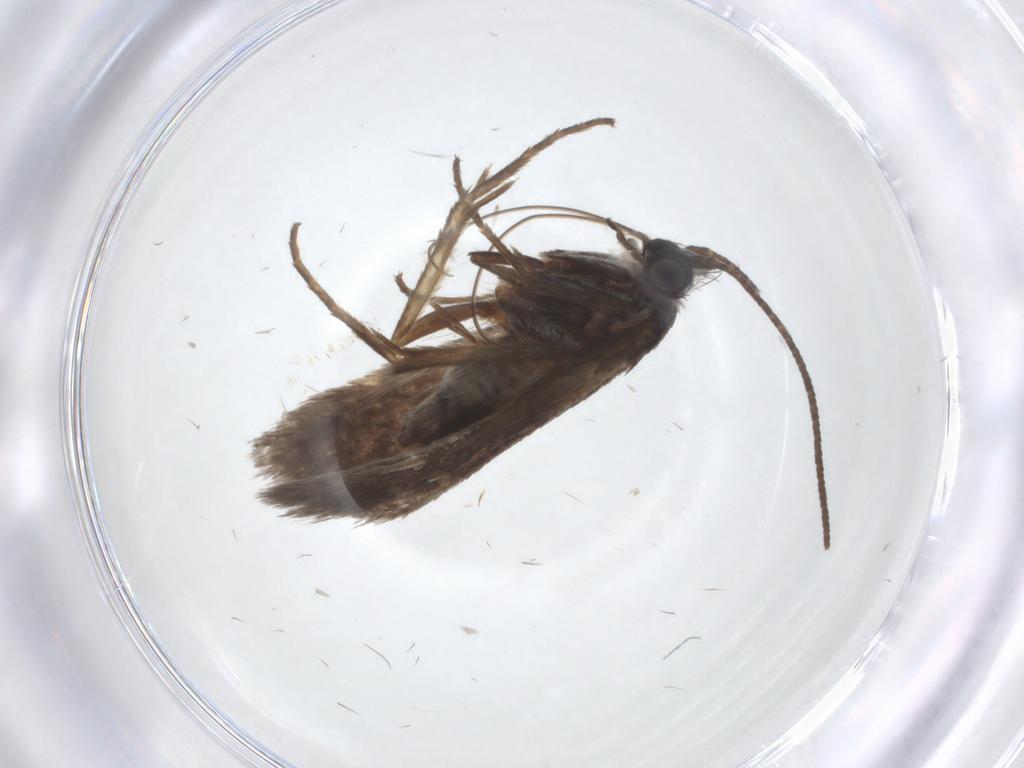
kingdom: Animalia
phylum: Arthropoda
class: Insecta
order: Lepidoptera
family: Adelidae
